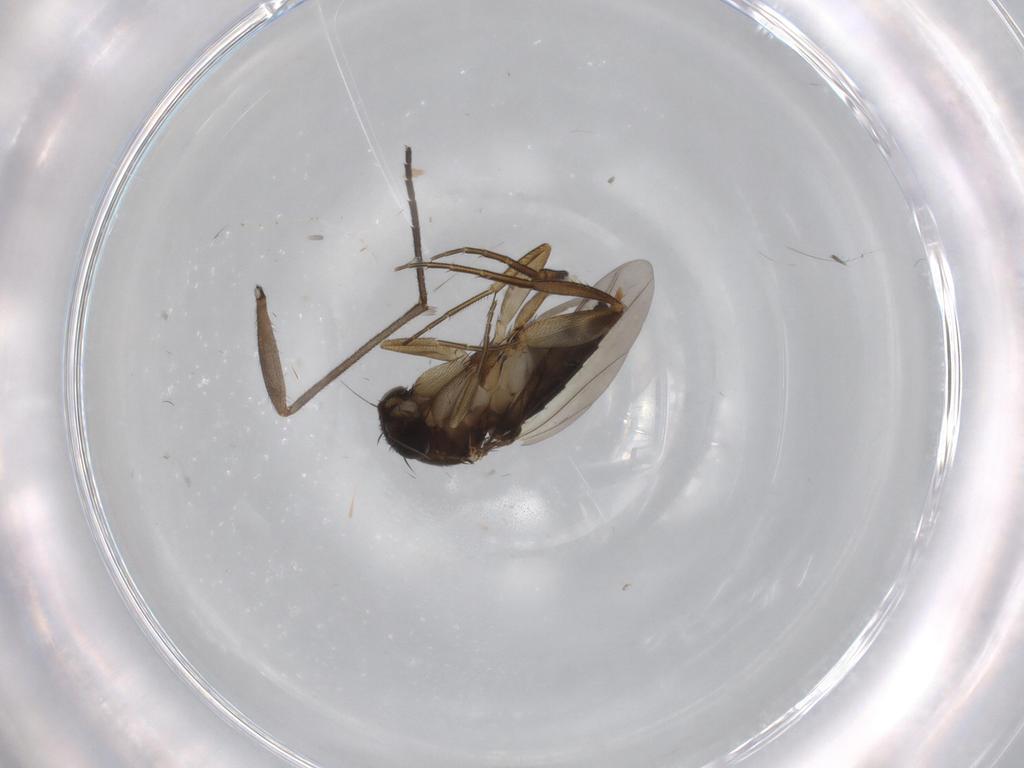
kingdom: Animalia
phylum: Arthropoda
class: Insecta
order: Diptera
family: Phoridae
